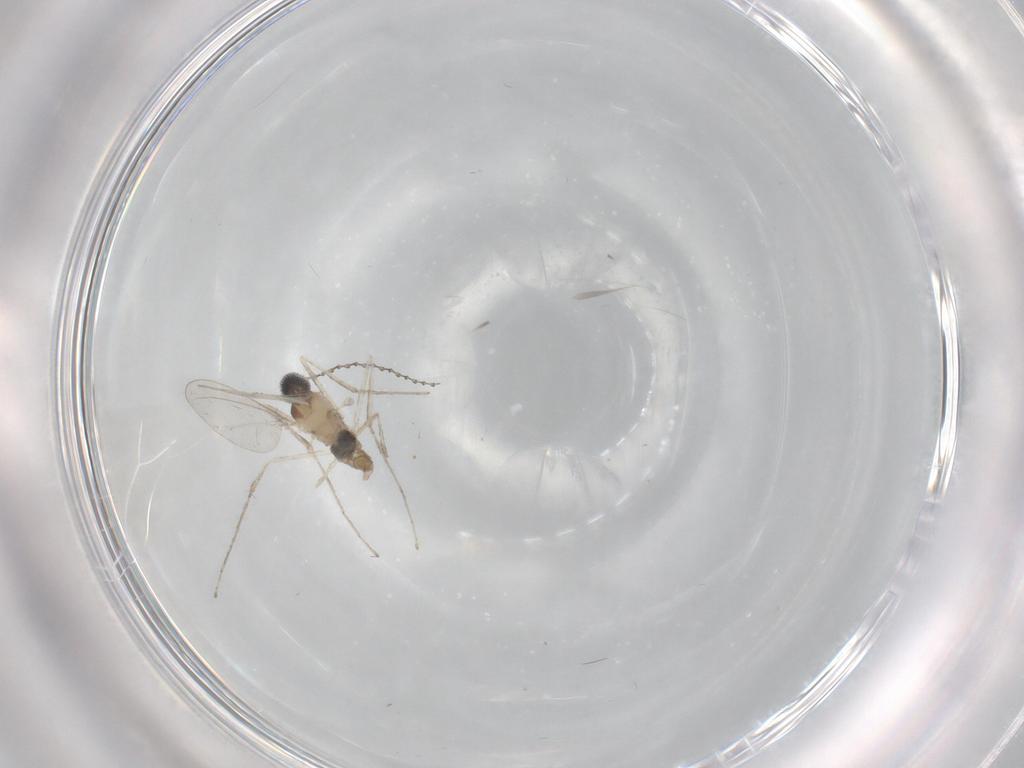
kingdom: Animalia
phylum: Arthropoda
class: Insecta
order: Diptera
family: Cecidomyiidae
